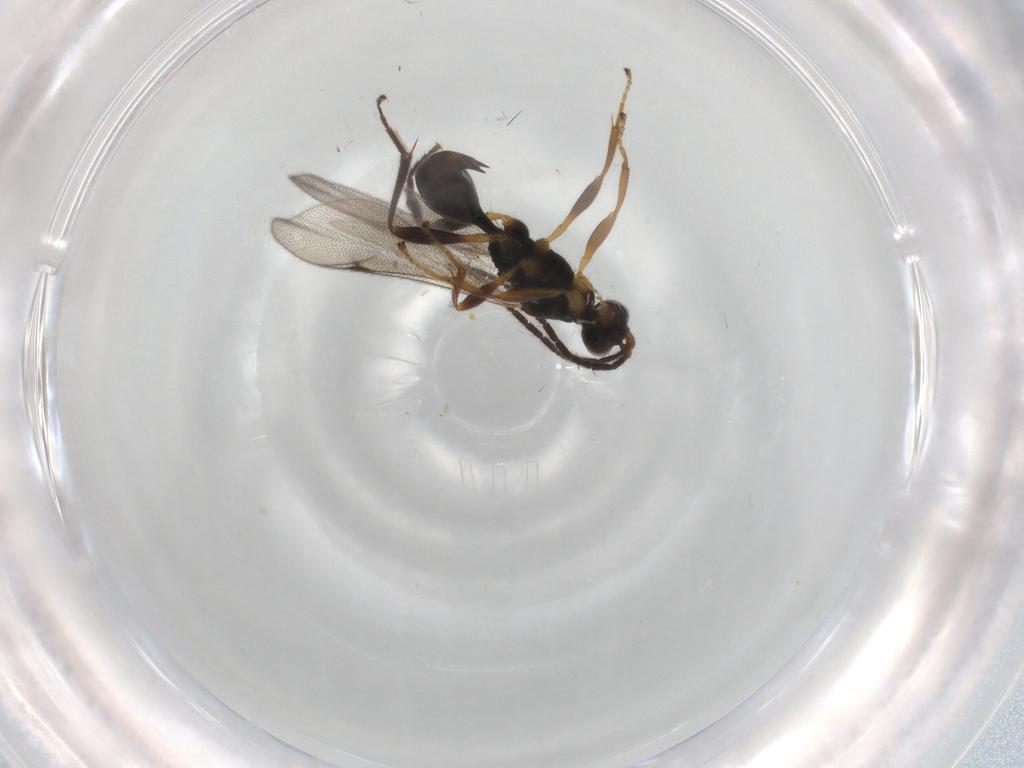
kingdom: Animalia
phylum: Arthropoda
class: Insecta
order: Hymenoptera
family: Proctotrupidae
